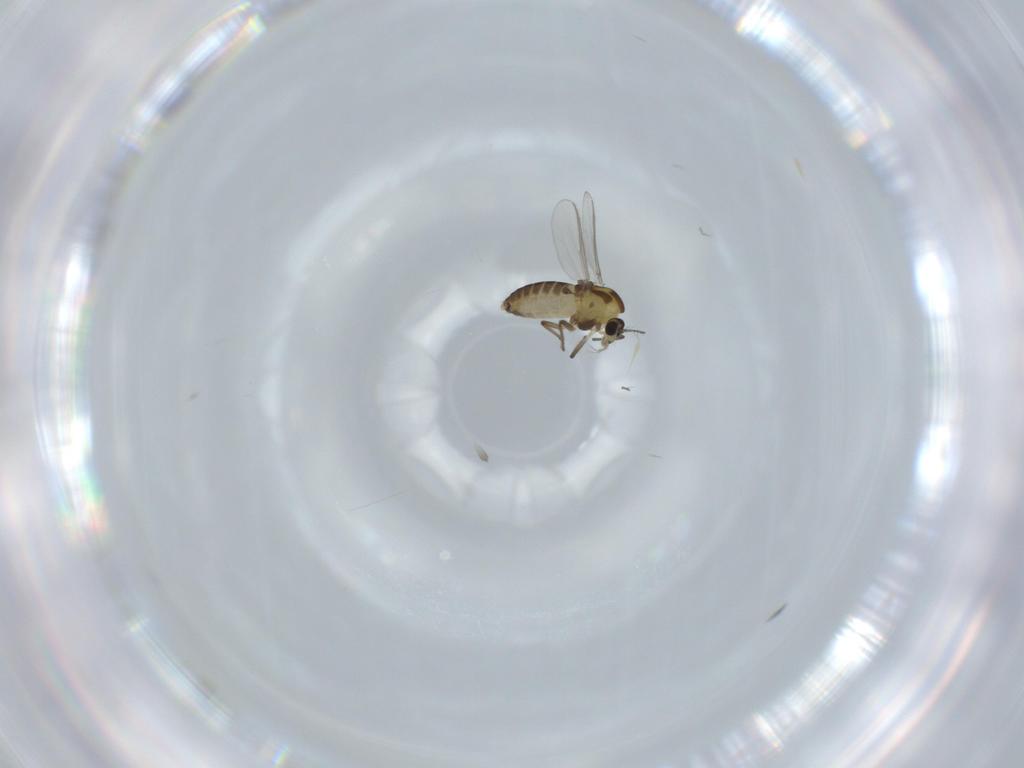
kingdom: Animalia
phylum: Arthropoda
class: Insecta
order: Diptera
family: Chironomidae
